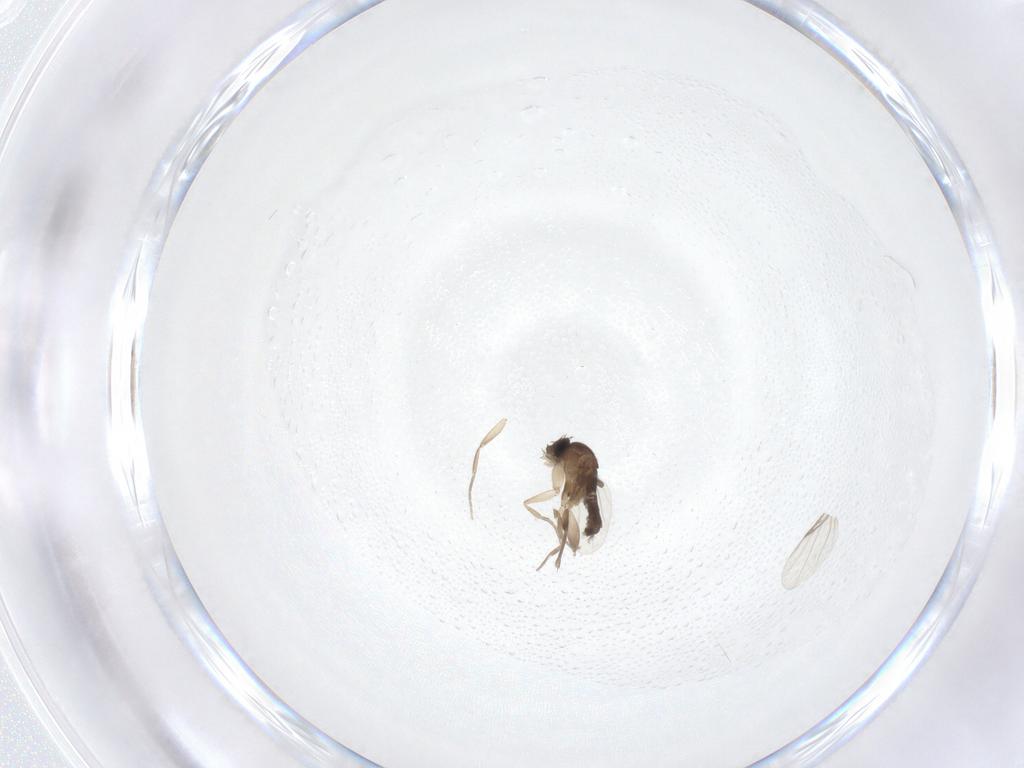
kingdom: Animalia
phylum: Arthropoda
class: Insecta
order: Diptera
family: Phoridae
